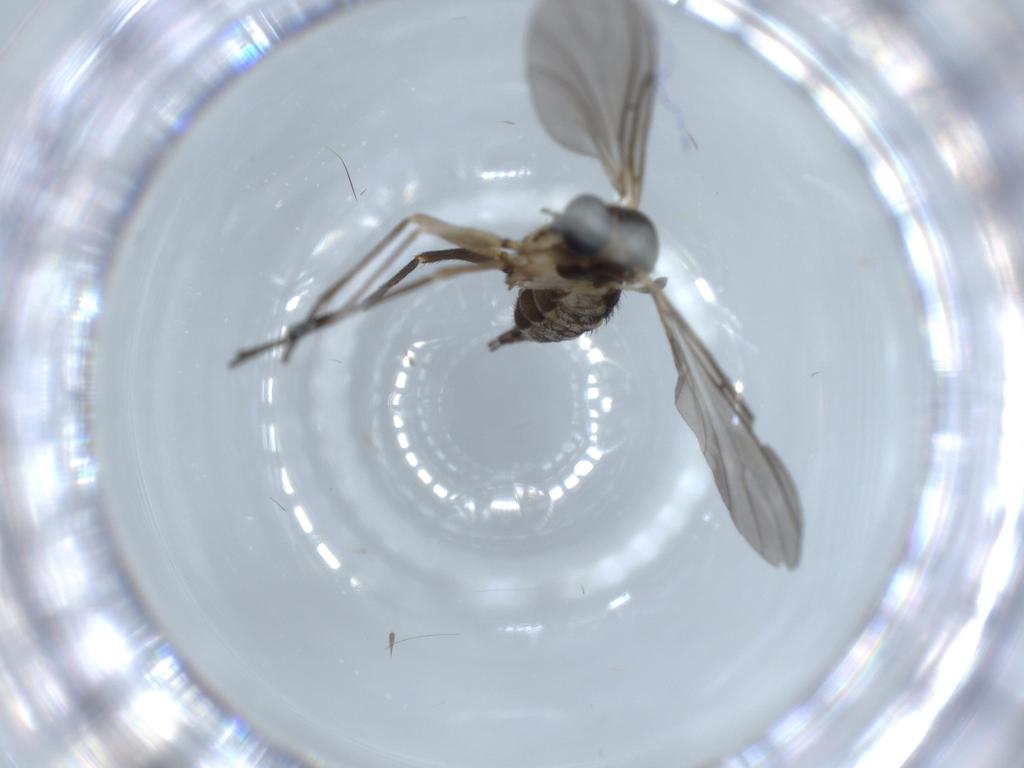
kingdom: Animalia
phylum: Arthropoda
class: Insecta
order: Diptera
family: Sciaridae
